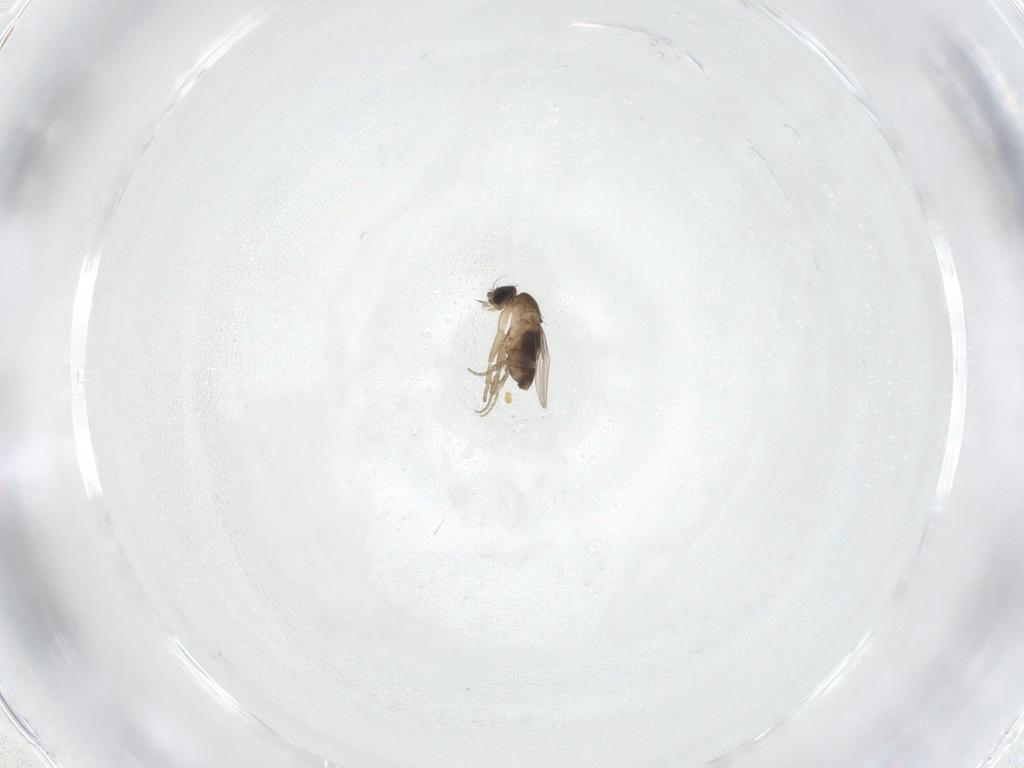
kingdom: Animalia
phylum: Arthropoda
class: Insecta
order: Diptera
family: Phoridae
